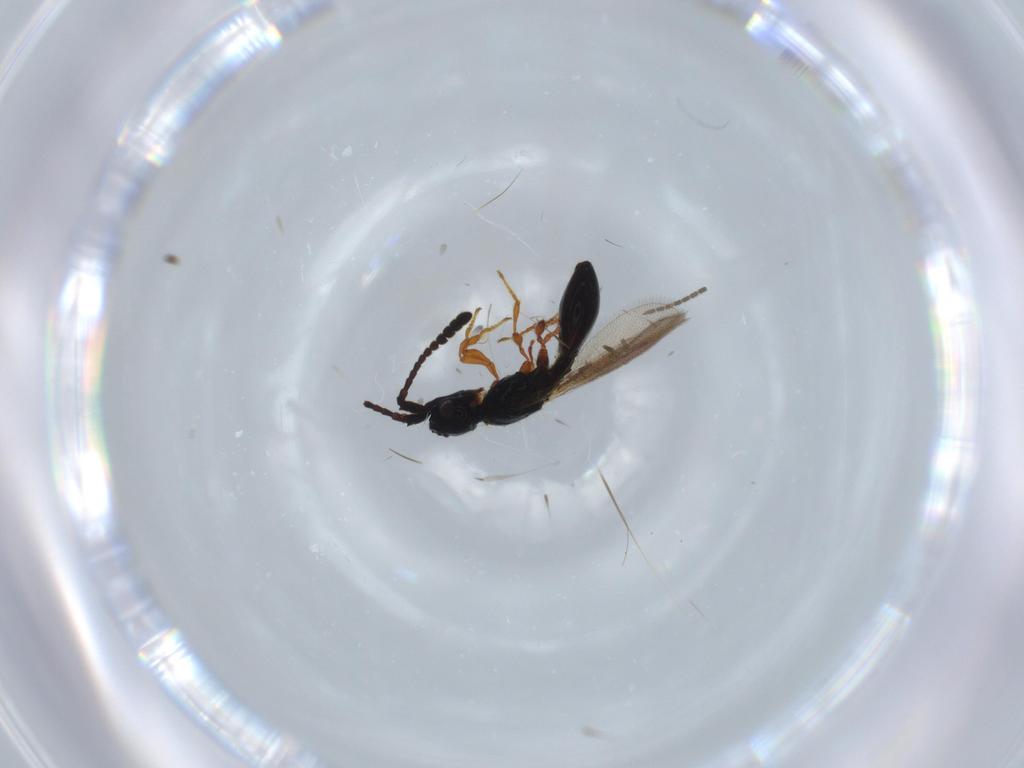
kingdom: Animalia
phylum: Arthropoda
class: Insecta
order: Hymenoptera
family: Diapriidae
